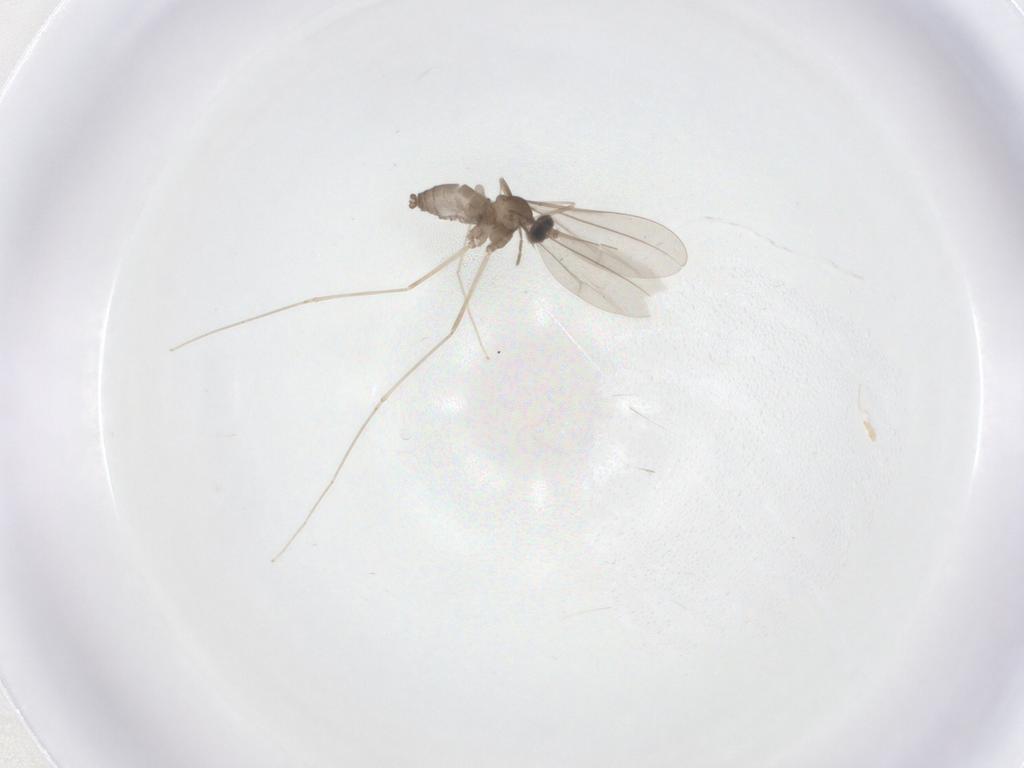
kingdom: Animalia
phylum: Arthropoda
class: Insecta
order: Diptera
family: Cecidomyiidae
